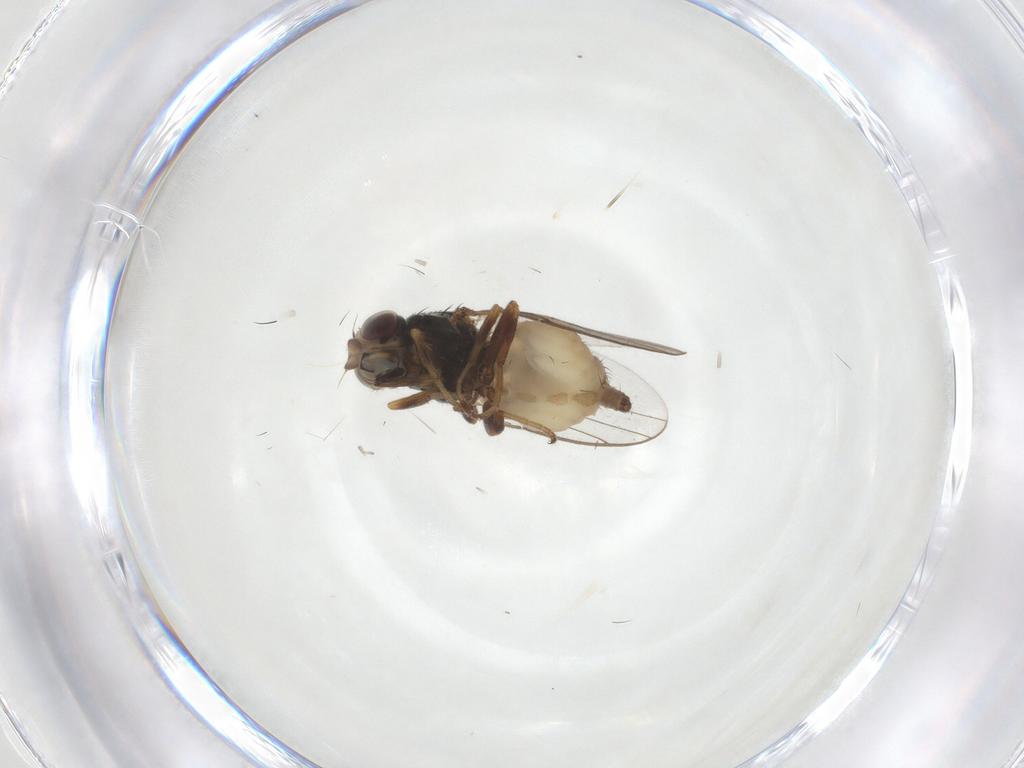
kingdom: Animalia
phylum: Arthropoda
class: Insecta
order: Diptera
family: Chloropidae
